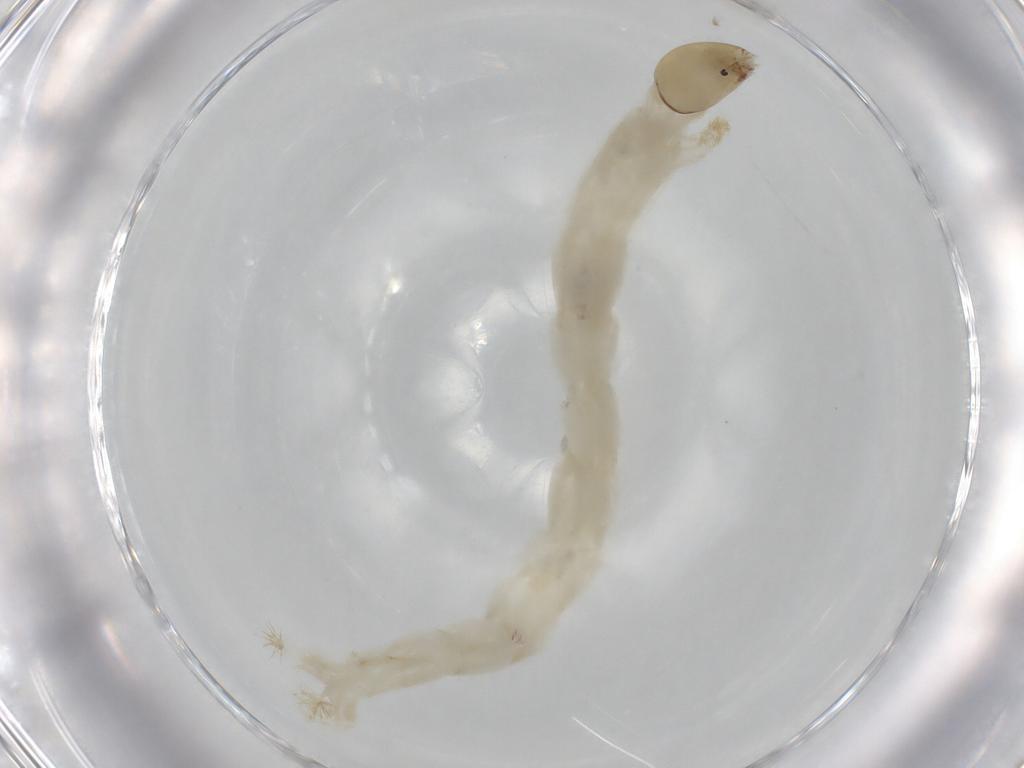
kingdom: Animalia
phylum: Arthropoda
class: Insecta
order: Diptera
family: Chironomidae
